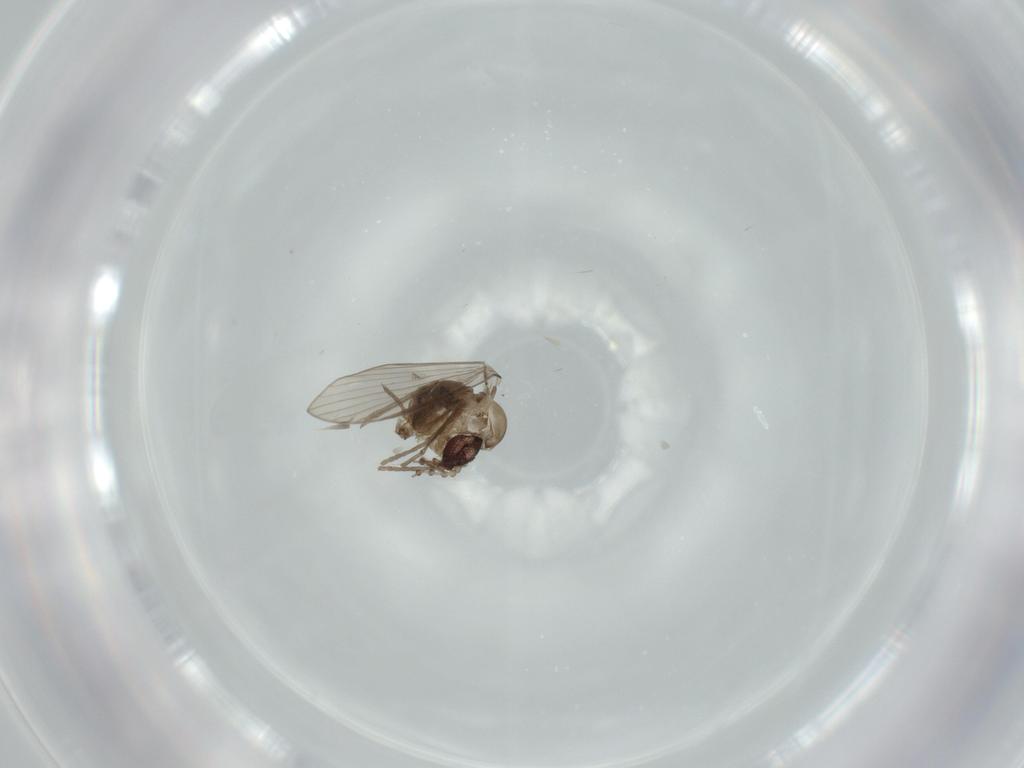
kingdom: Animalia
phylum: Arthropoda
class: Insecta
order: Diptera
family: Psychodidae
